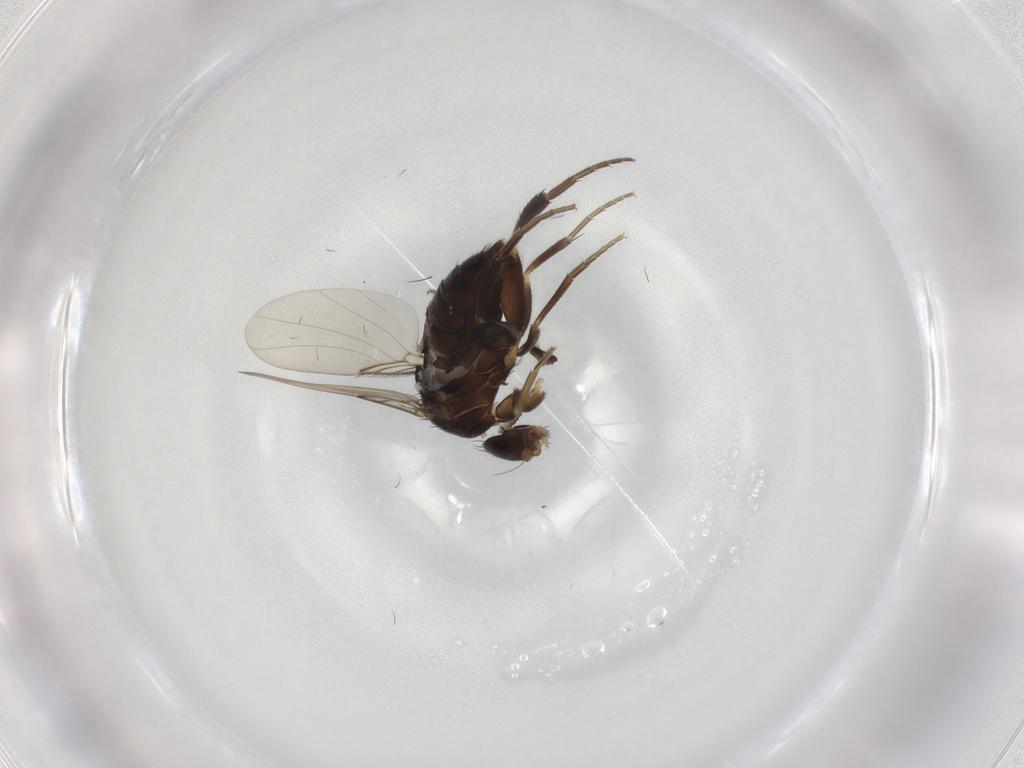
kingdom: Animalia
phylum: Arthropoda
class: Insecta
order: Diptera
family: Phoridae
